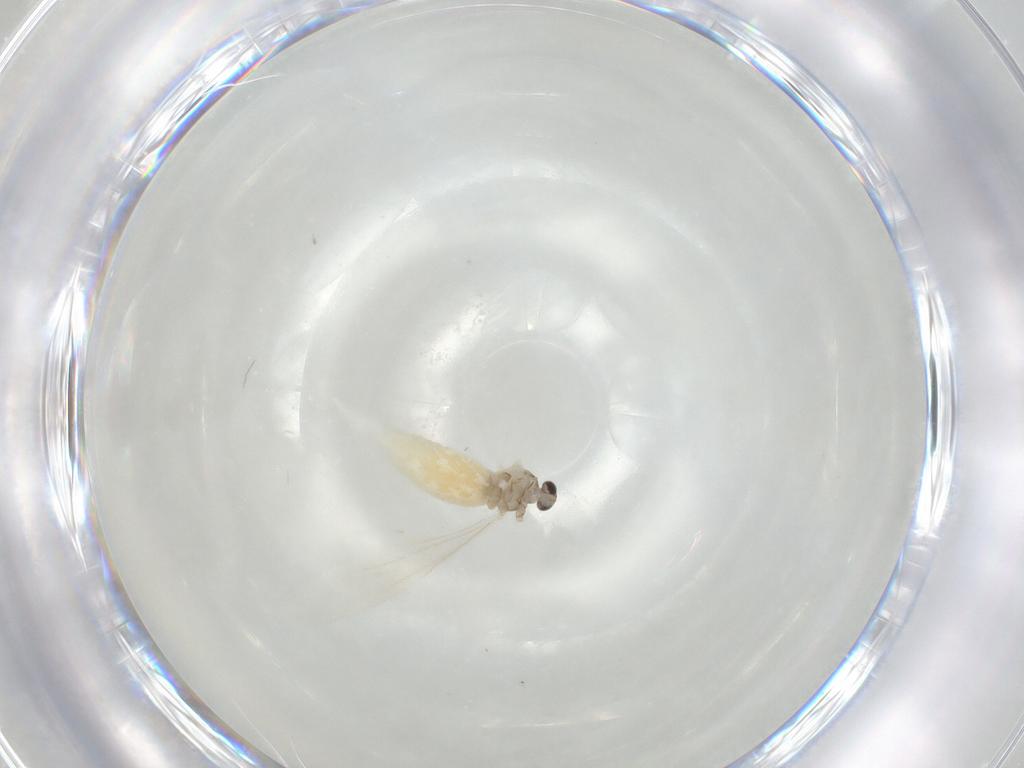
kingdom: Animalia
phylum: Arthropoda
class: Insecta
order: Diptera
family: Cecidomyiidae
